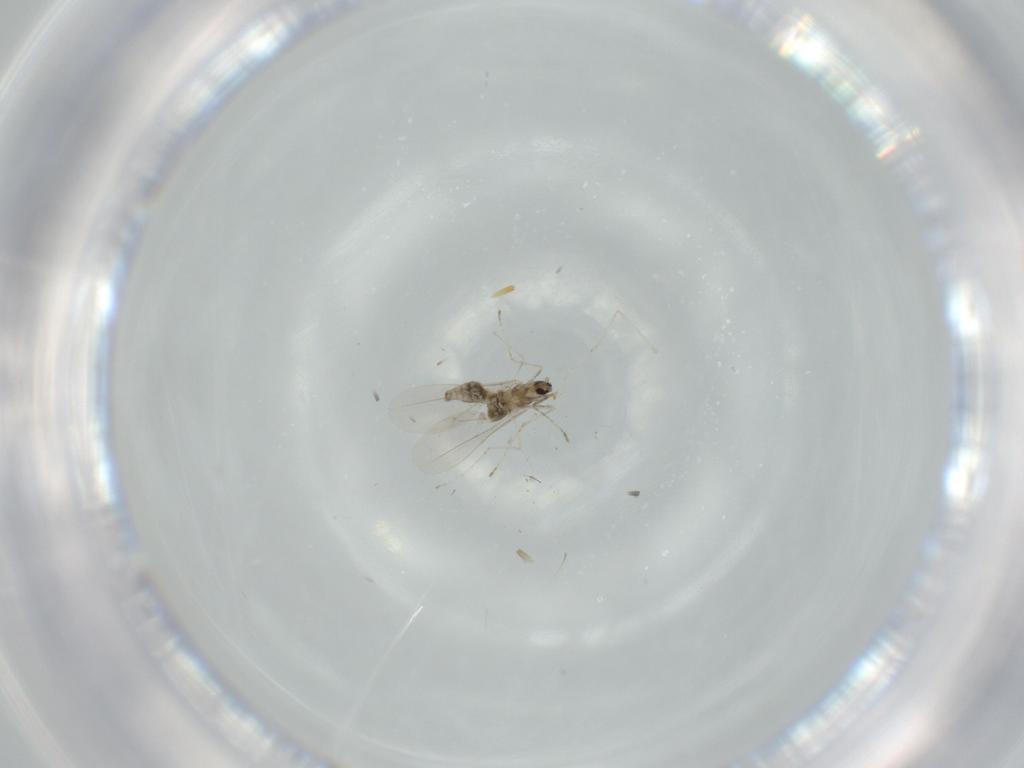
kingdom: Animalia
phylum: Arthropoda
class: Insecta
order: Diptera
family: Cecidomyiidae
